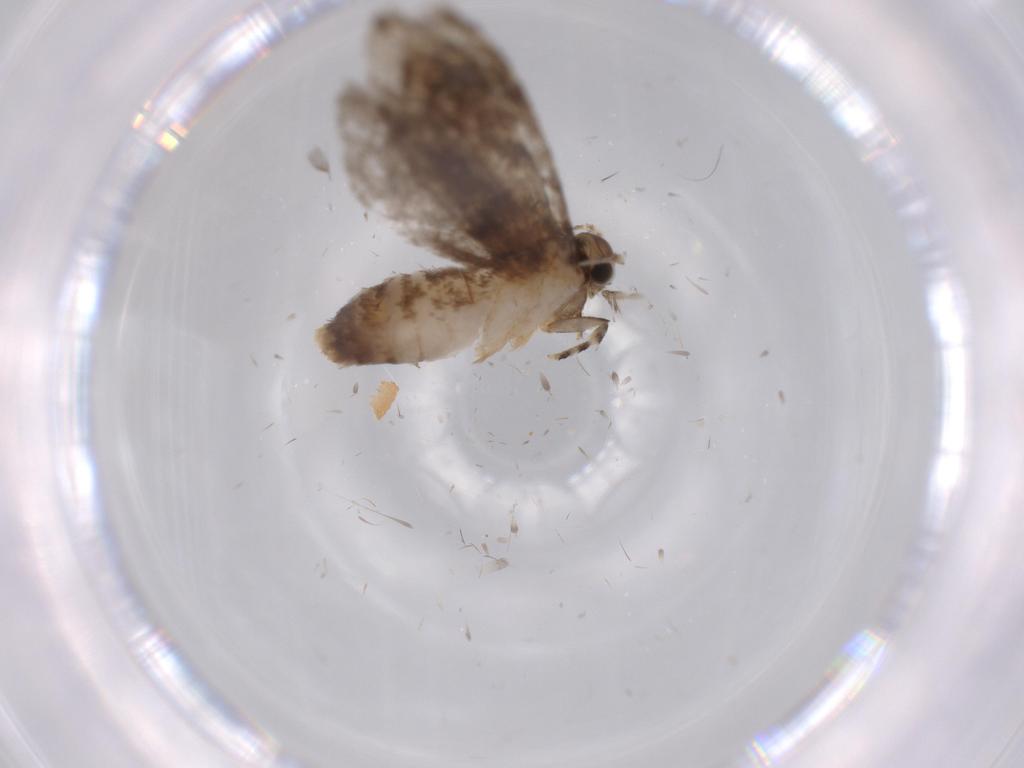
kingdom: Animalia
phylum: Arthropoda
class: Insecta
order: Lepidoptera
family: Tineidae
